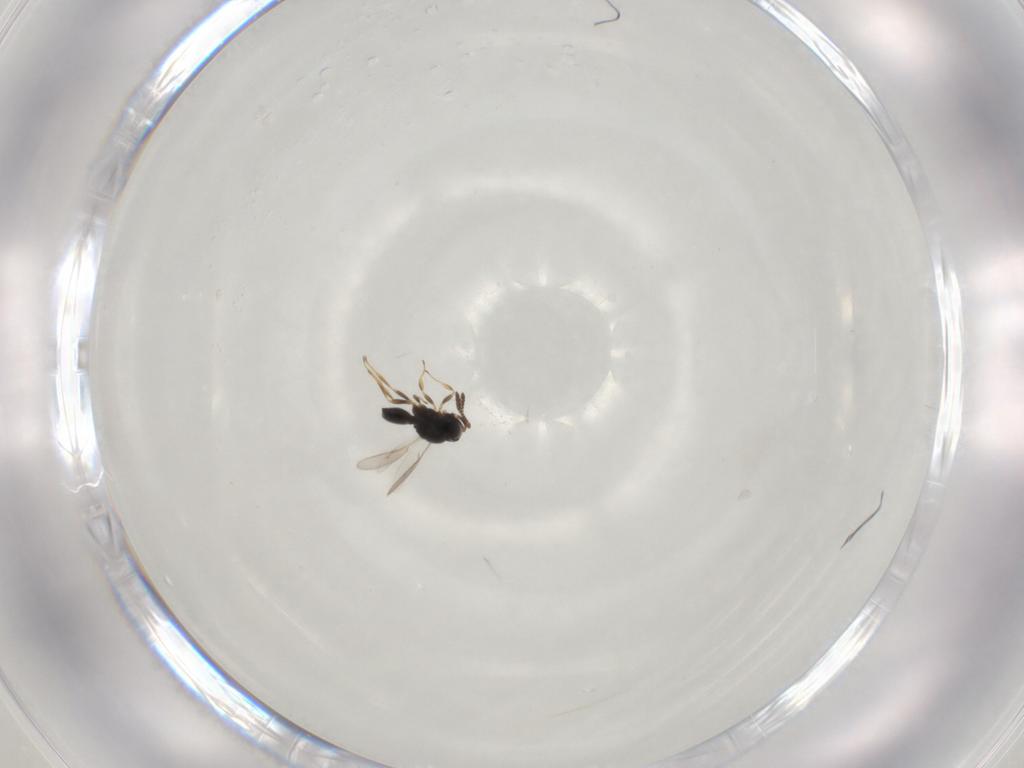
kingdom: Animalia
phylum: Arthropoda
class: Insecta
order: Hymenoptera
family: Scelionidae
